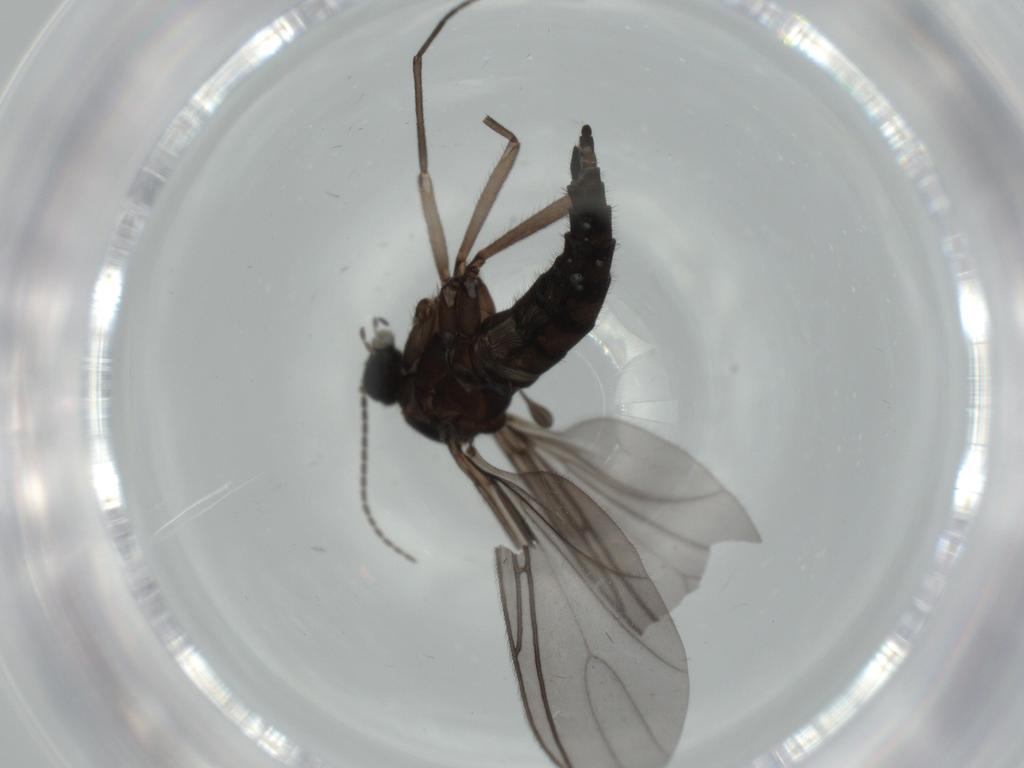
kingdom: Animalia
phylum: Arthropoda
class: Insecta
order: Diptera
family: Sciaridae
